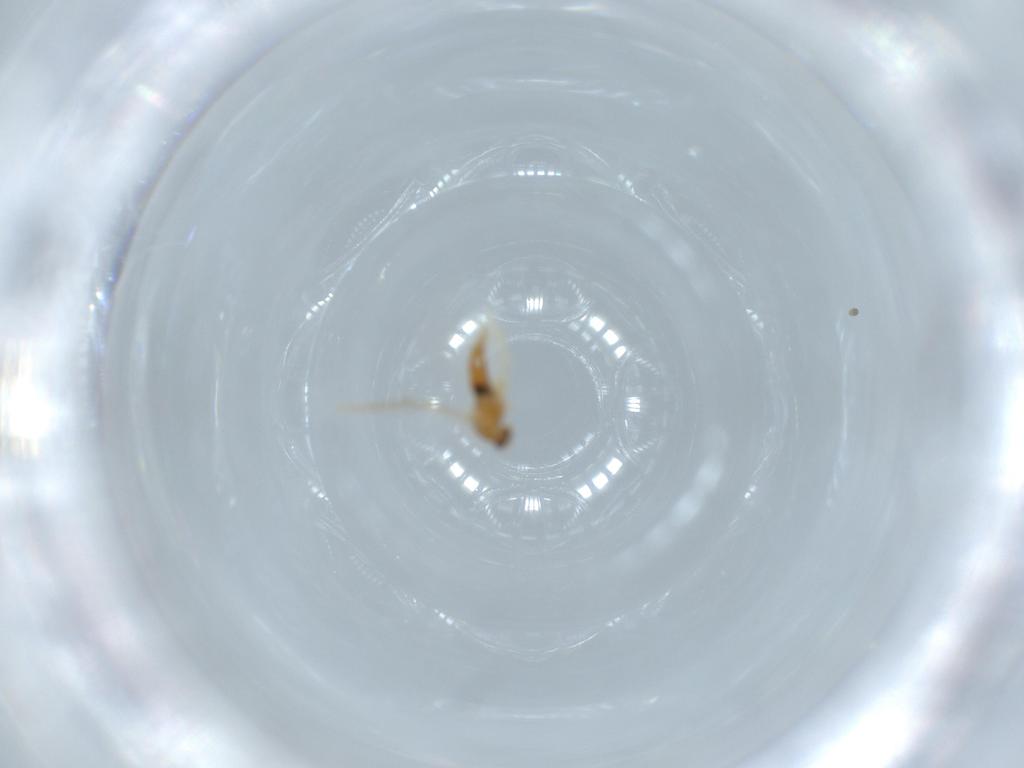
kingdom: Animalia
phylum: Arthropoda
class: Insecta
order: Diptera
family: Cecidomyiidae
